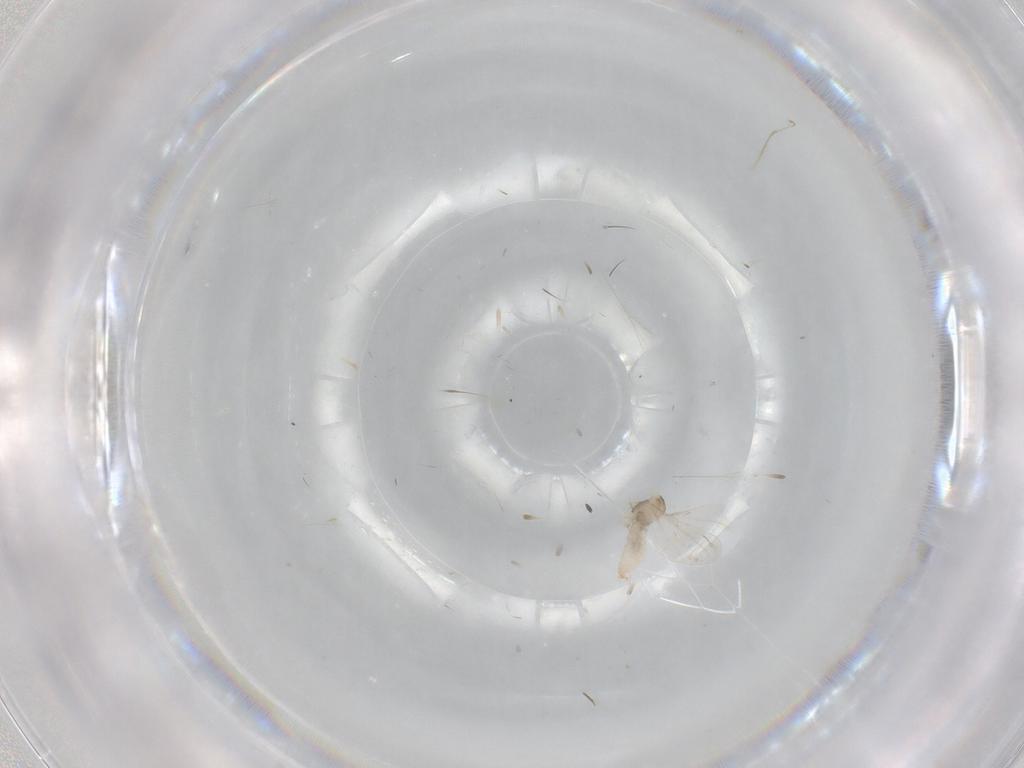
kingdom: Animalia
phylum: Arthropoda
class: Insecta
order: Diptera
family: Cecidomyiidae
